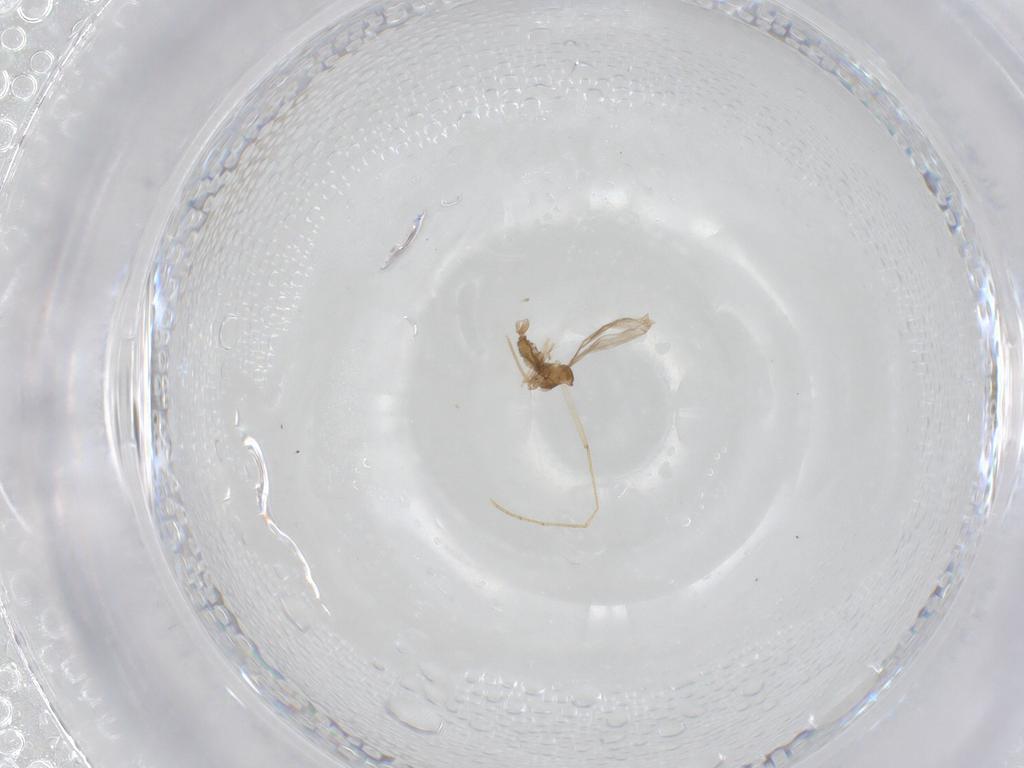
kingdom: Animalia
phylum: Arthropoda
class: Insecta
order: Diptera
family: Cecidomyiidae
